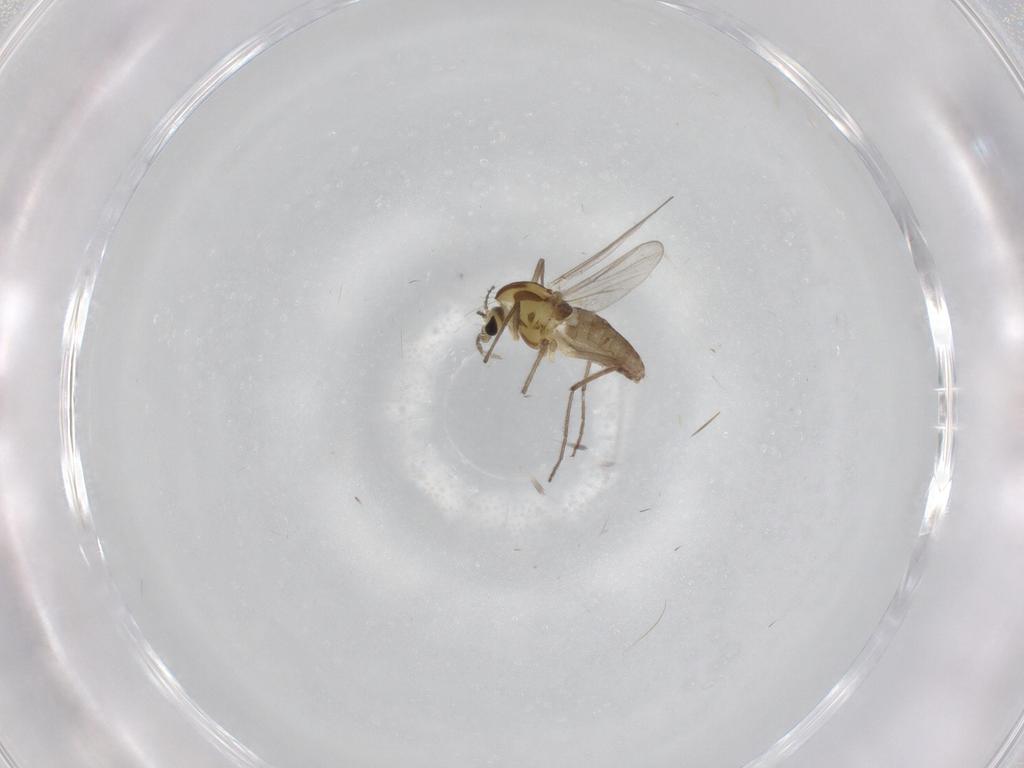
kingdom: Animalia
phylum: Arthropoda
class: Insecta
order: Diptera
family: Chironomidae
